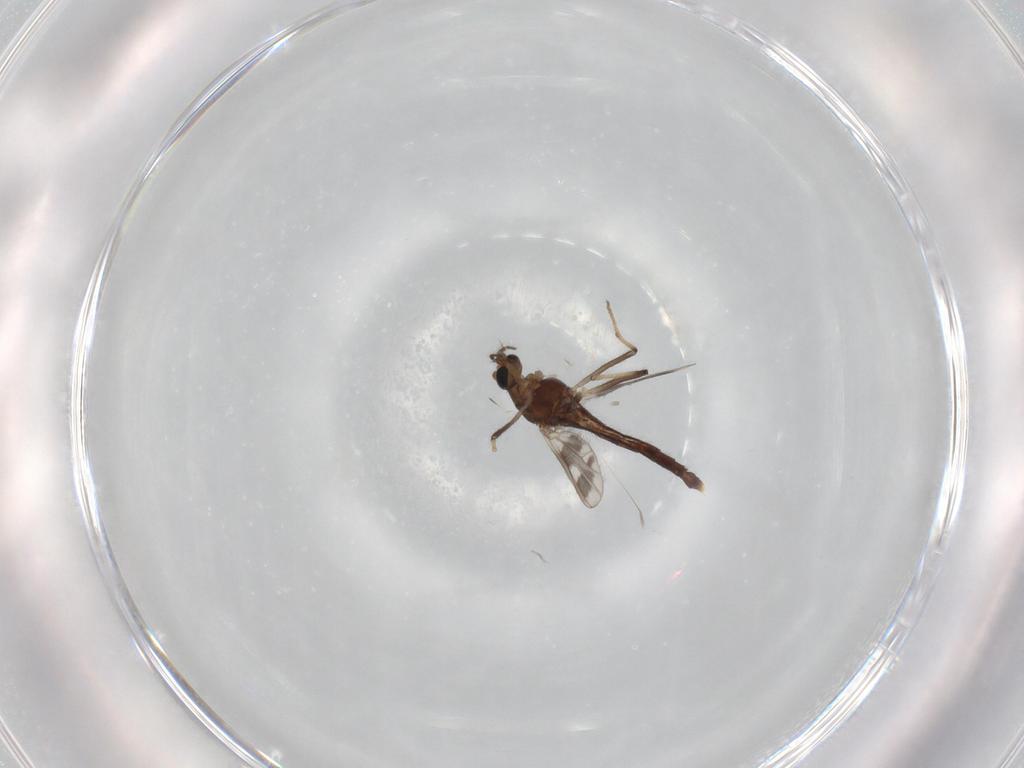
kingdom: Animalia
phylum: Arthropoda
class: Insecta
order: Diptera
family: Chironomidae
